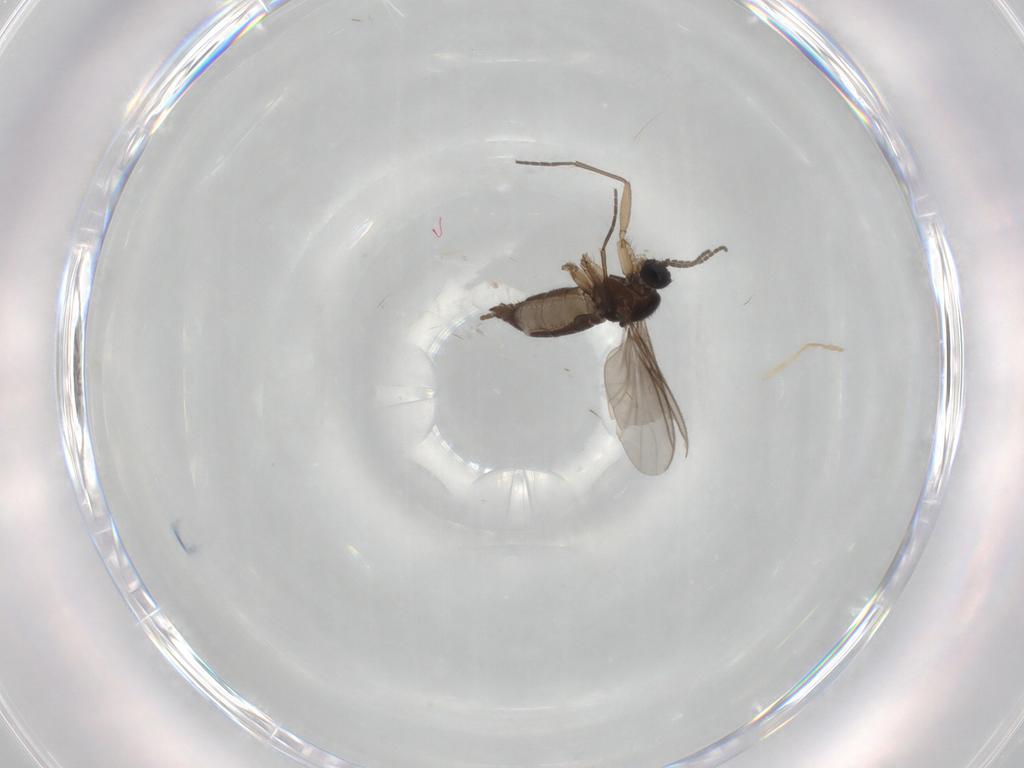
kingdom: Animalia
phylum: Arthropoda
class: Insecta
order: Diptera
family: Sciaridae
